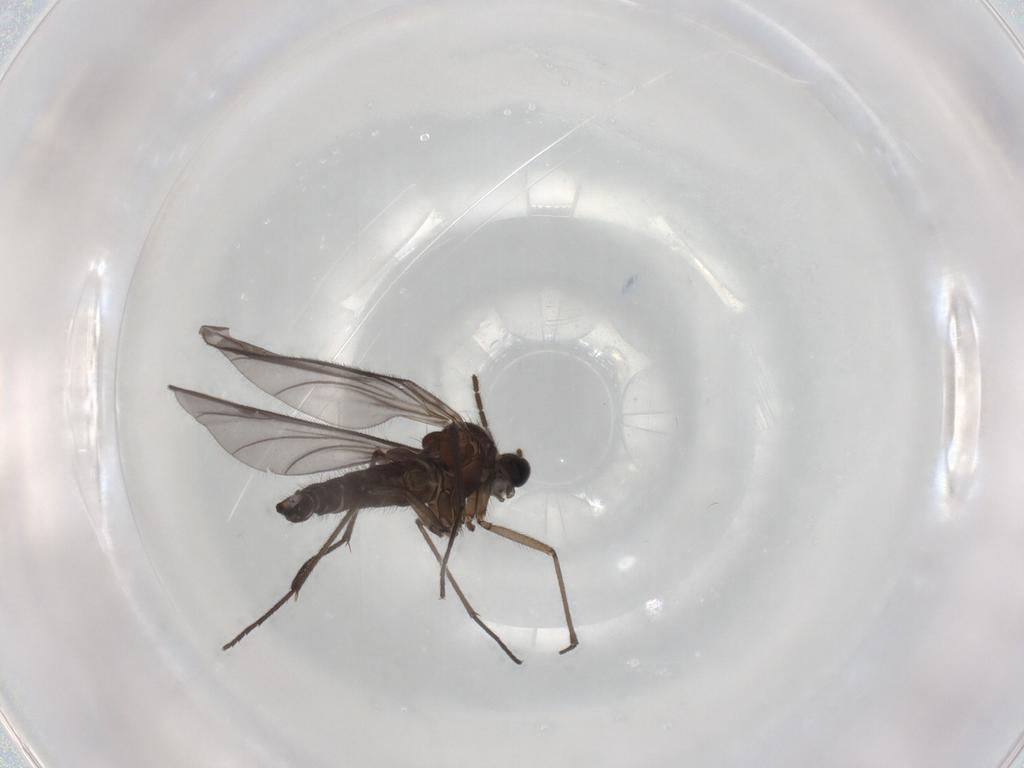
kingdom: Animalia
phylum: Arthropoda
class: Insecta
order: Diptera
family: Sciaridae
